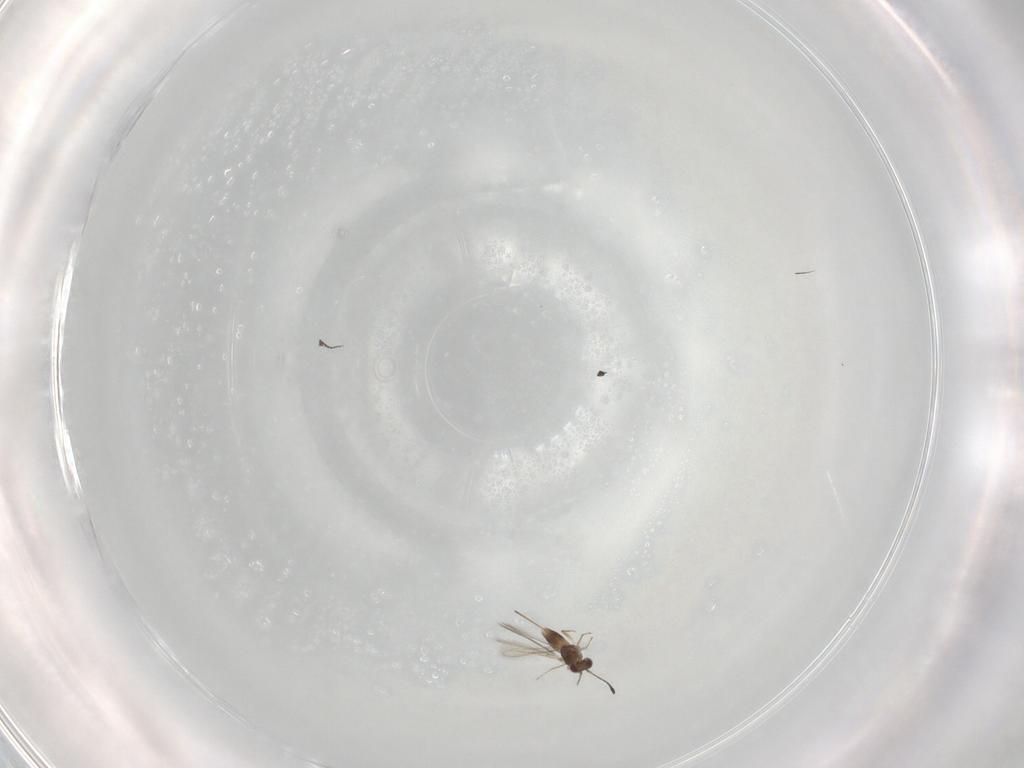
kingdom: Animalia
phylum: Arthropoda
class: Insecta
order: Hymenoptera
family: Mymaridae
